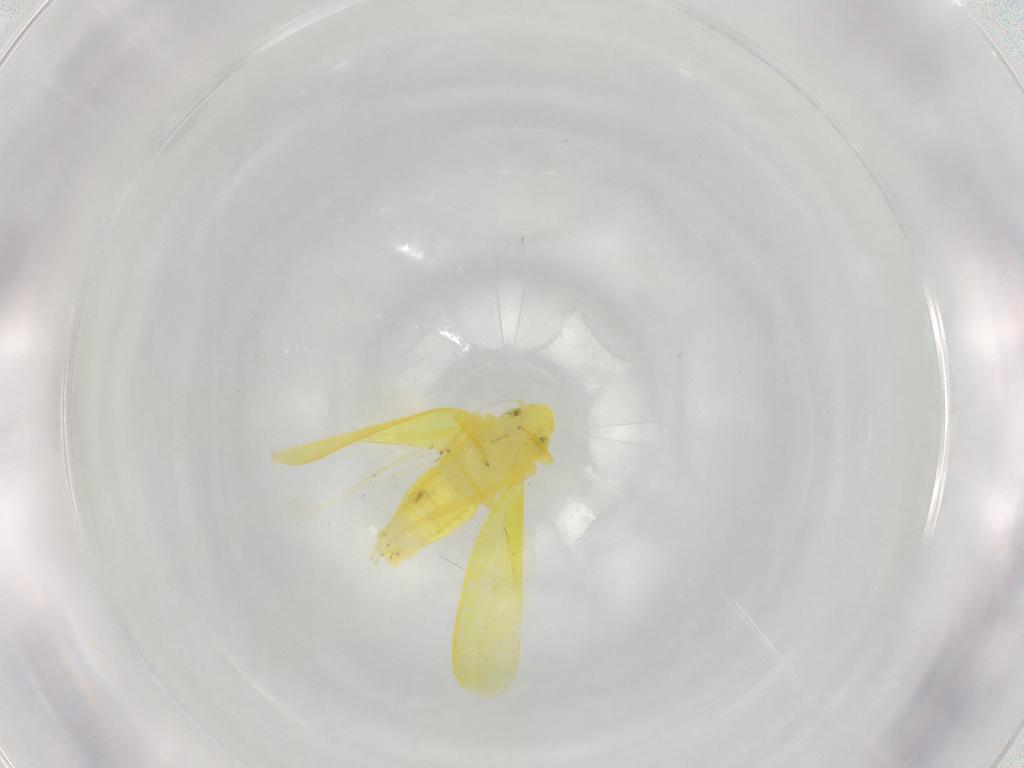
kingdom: Animalia
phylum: Arthropoda
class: Insecta
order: Hemiptera
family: Cicadellidae
